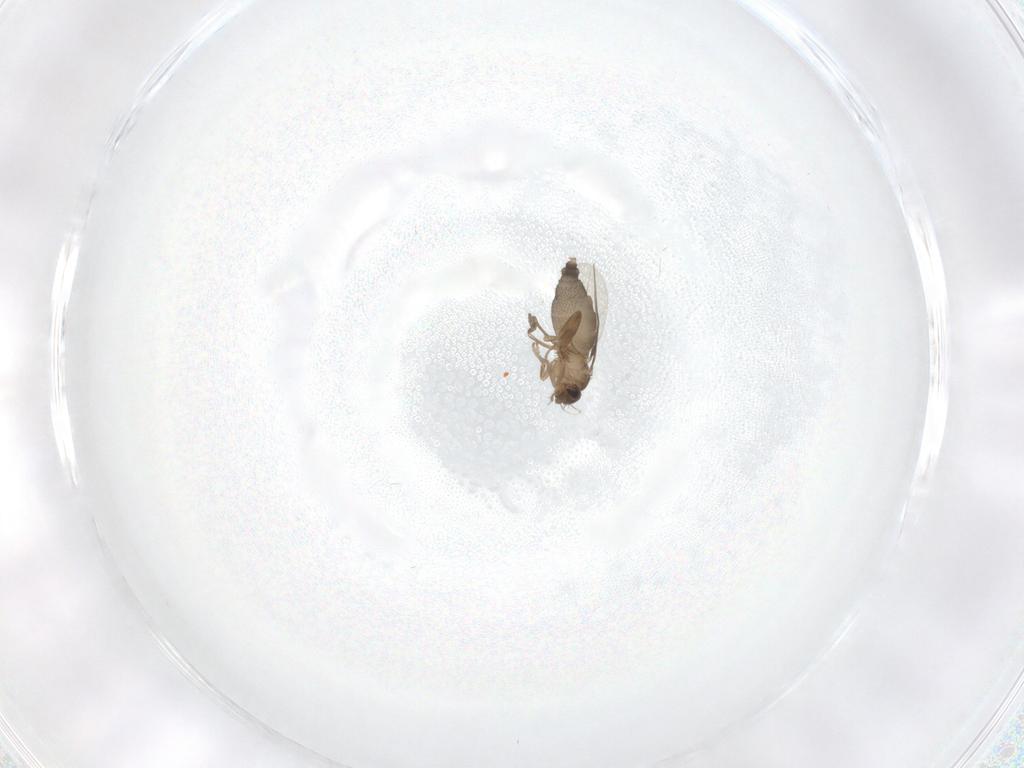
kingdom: Animalia
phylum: Arthropoda
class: Insecta
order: Diptera
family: Phoridae
